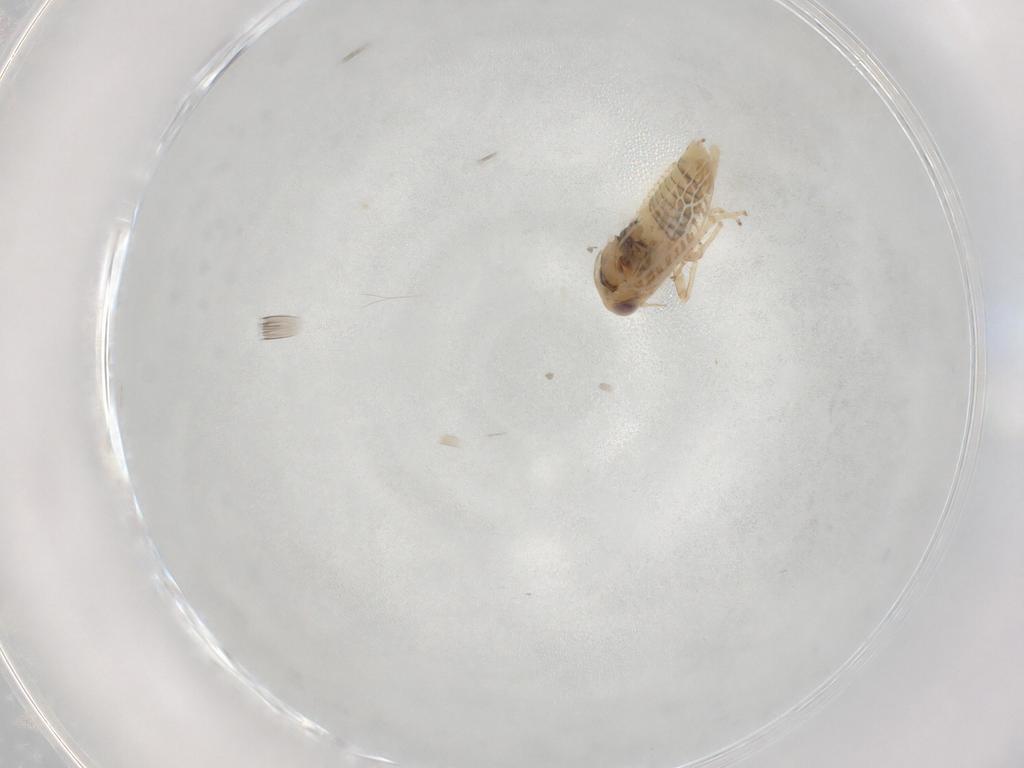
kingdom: Animalia
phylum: Arthropoda
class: Insecta
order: Hemiptera
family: Cicadellidae
